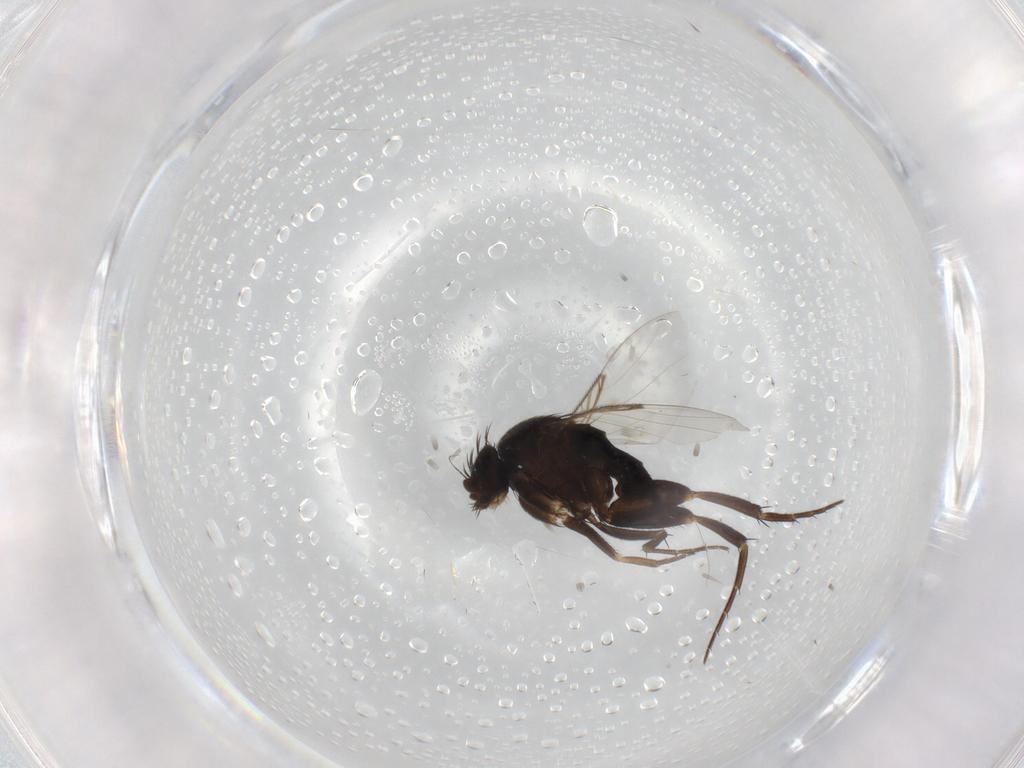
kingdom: Animalia
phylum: Arthropoda
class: Insecta
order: Diptera
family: Phoridae
